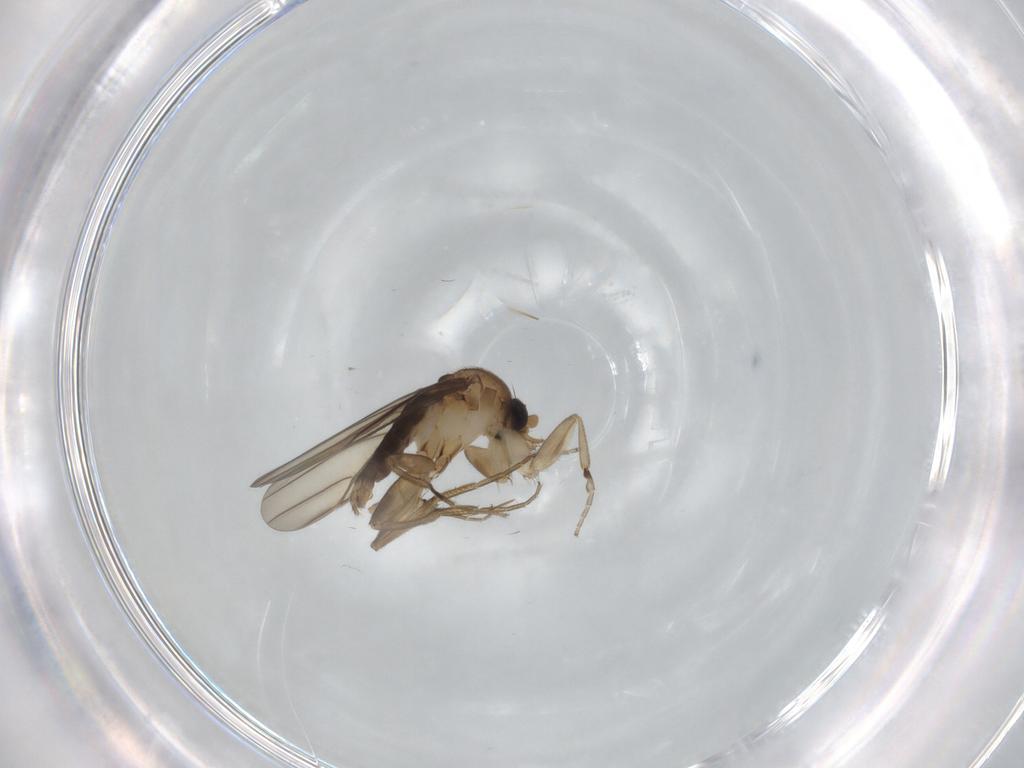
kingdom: Animalia
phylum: Arthropoda
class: Insecta
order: Diptera
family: Phoridae
